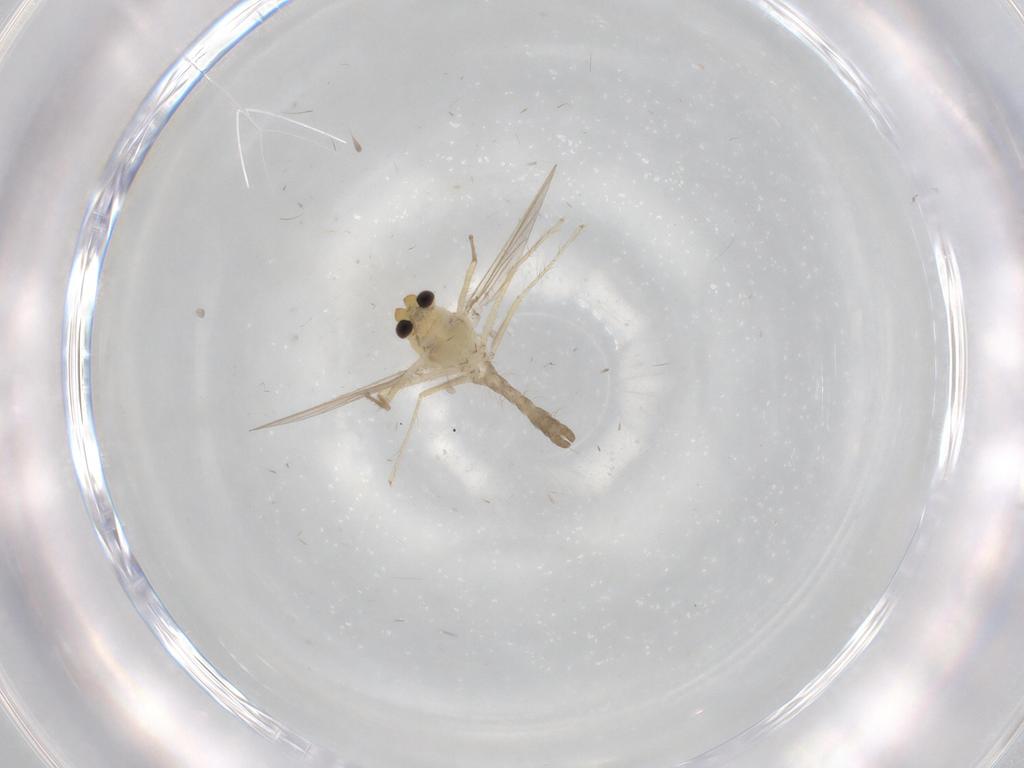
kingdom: Animalia
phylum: Arthropoda
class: Insecta
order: Diptera
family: Chironomidae
